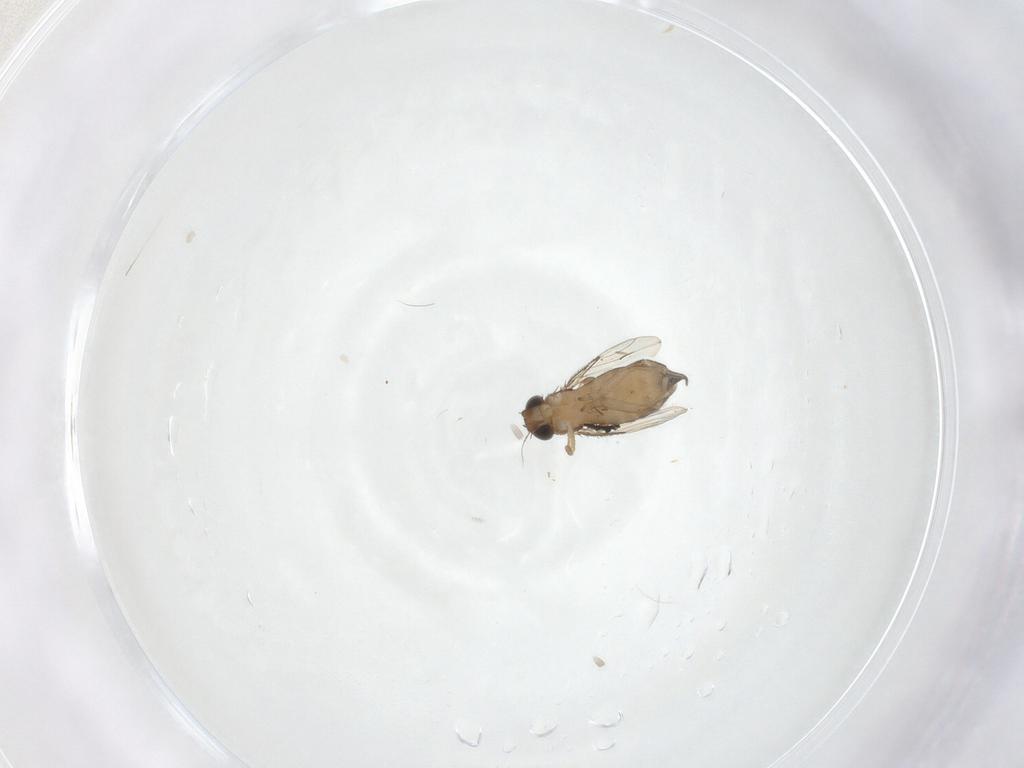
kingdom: Animalia
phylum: Arthropoda
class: Insecta
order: Diptera
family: Phoridae
